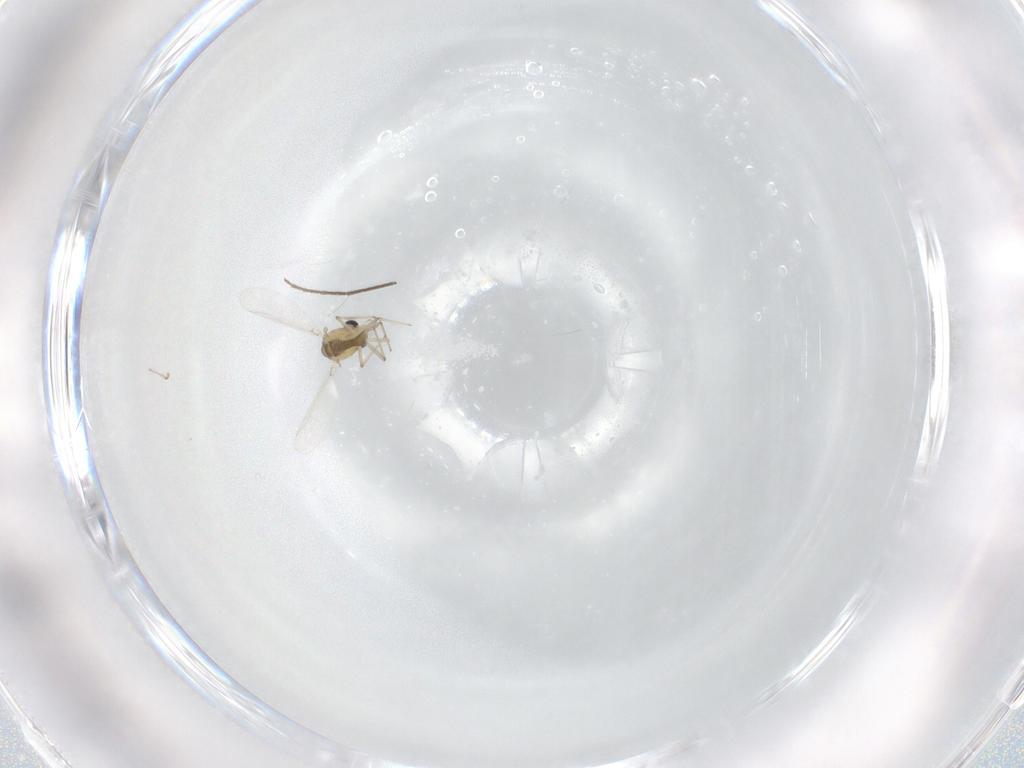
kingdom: Animalia
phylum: Arthropoda
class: Insecta
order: Diptera
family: Chironomidae
